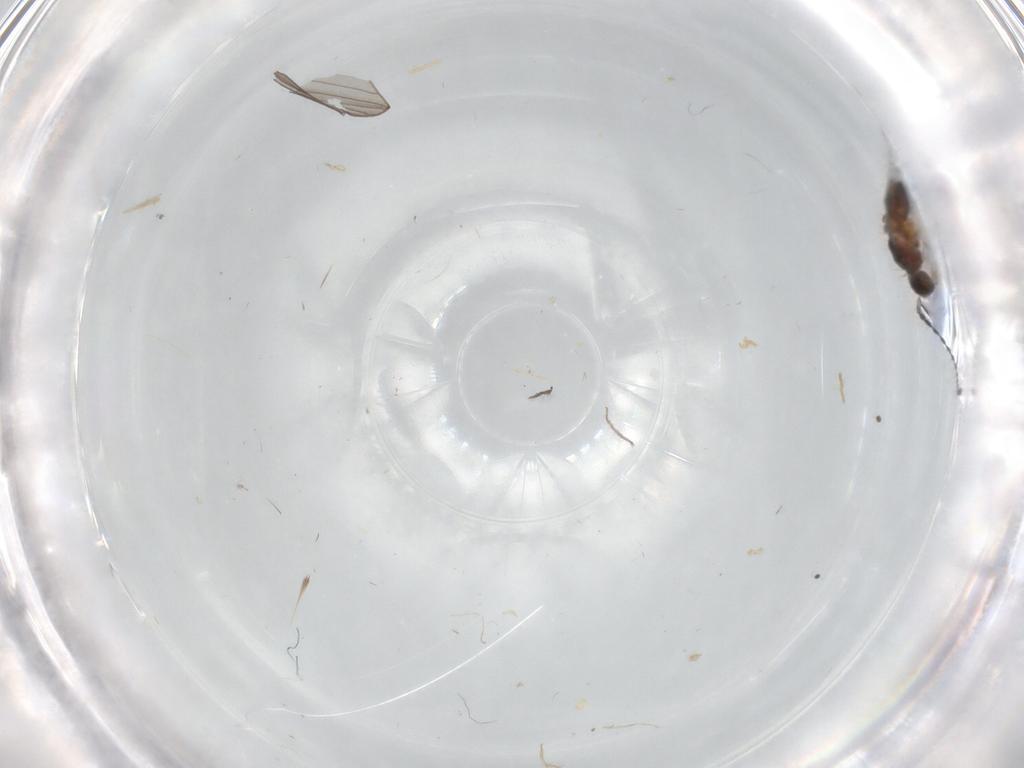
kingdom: Animalia
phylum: Arthropoda
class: Insecta
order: Hymenoptera
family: Diapriidae
